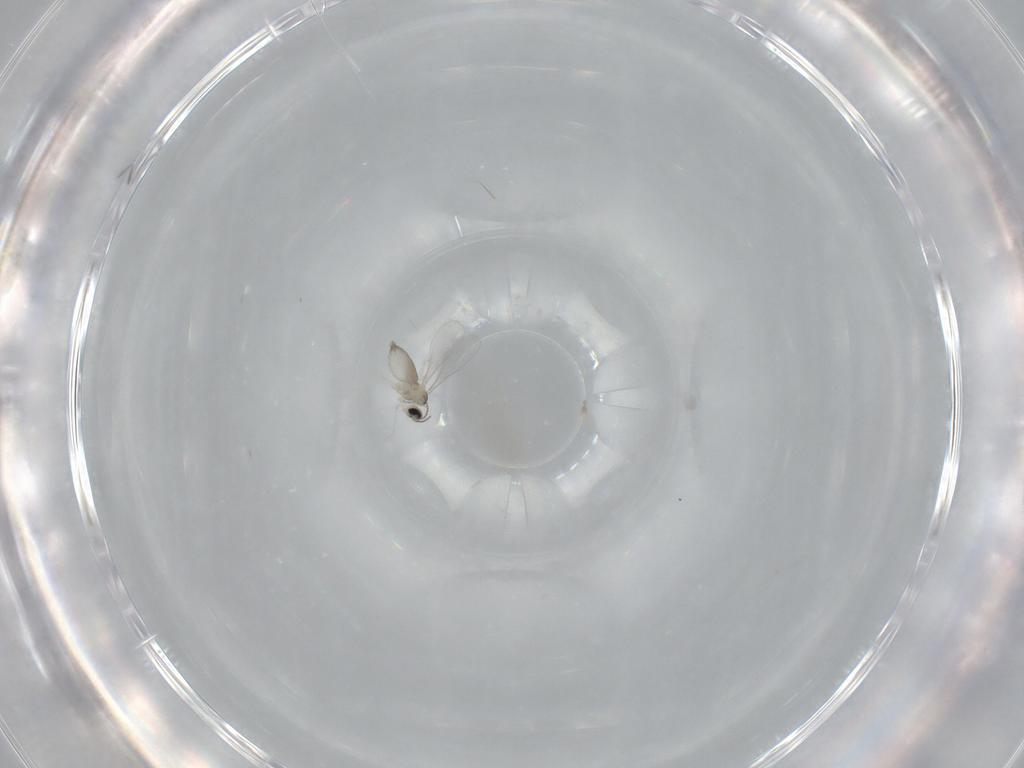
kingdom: Animalia
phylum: Arthropoda
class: Insecta
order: Diptera
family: Cecidomyiidae
